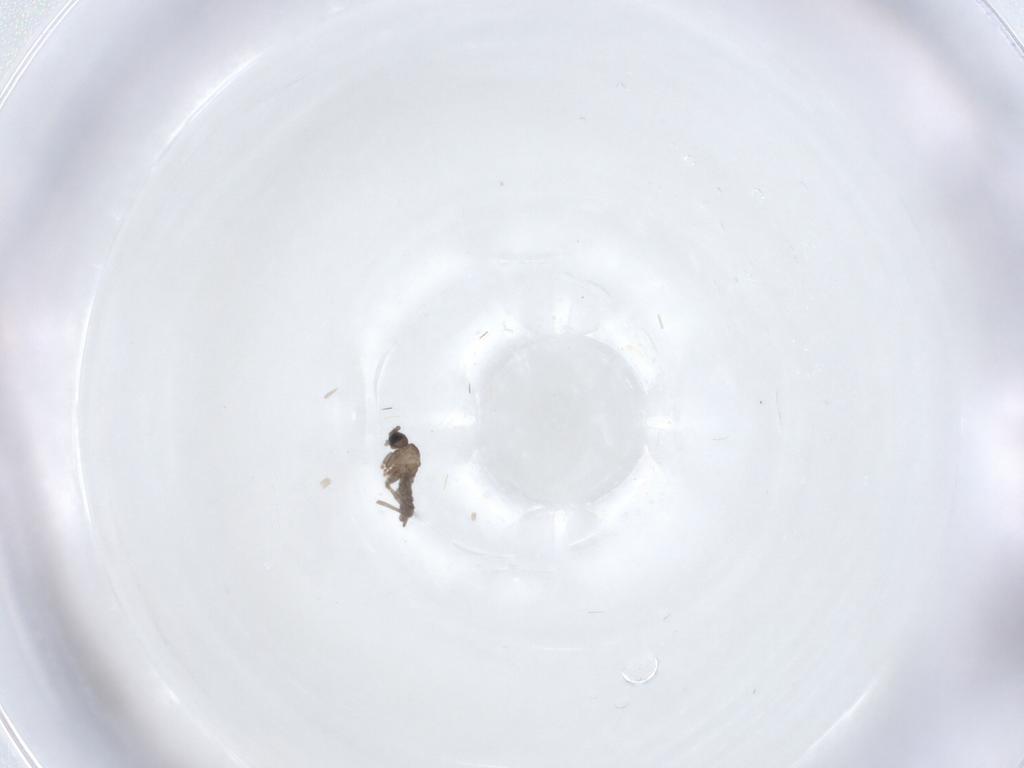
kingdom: Animalia
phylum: Arthropoda
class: Insecta
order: Diptera
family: Sciaridae
